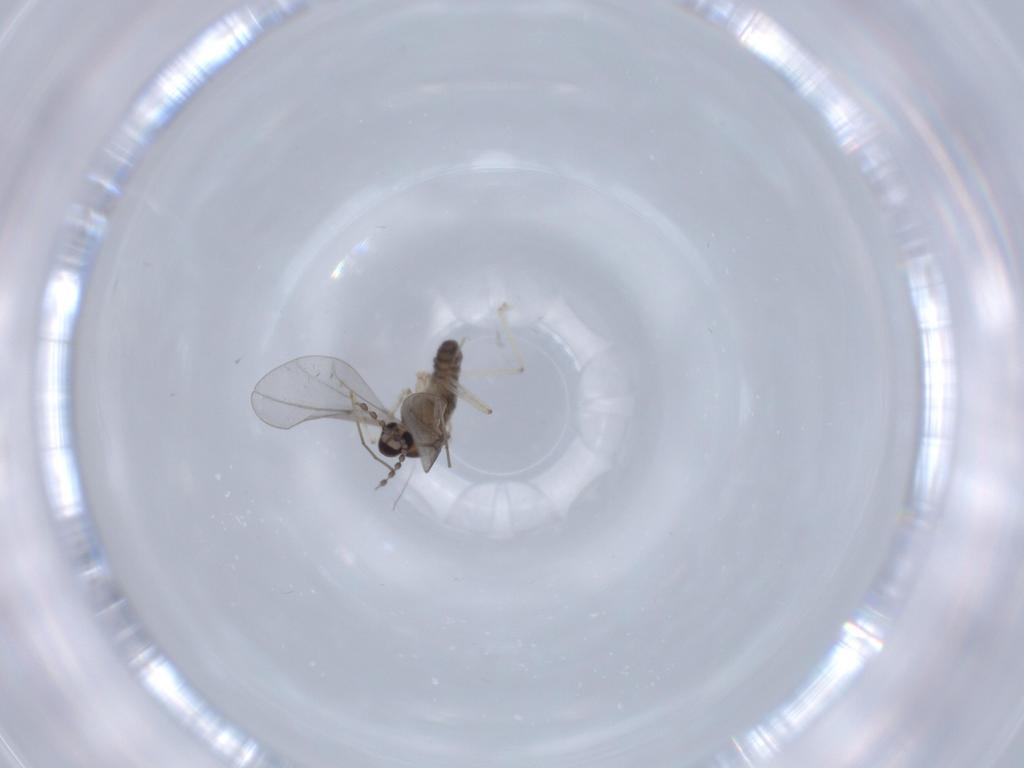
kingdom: Animalia
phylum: Arthropoda
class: Insecta
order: Diptera
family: Cecidomyiidae
